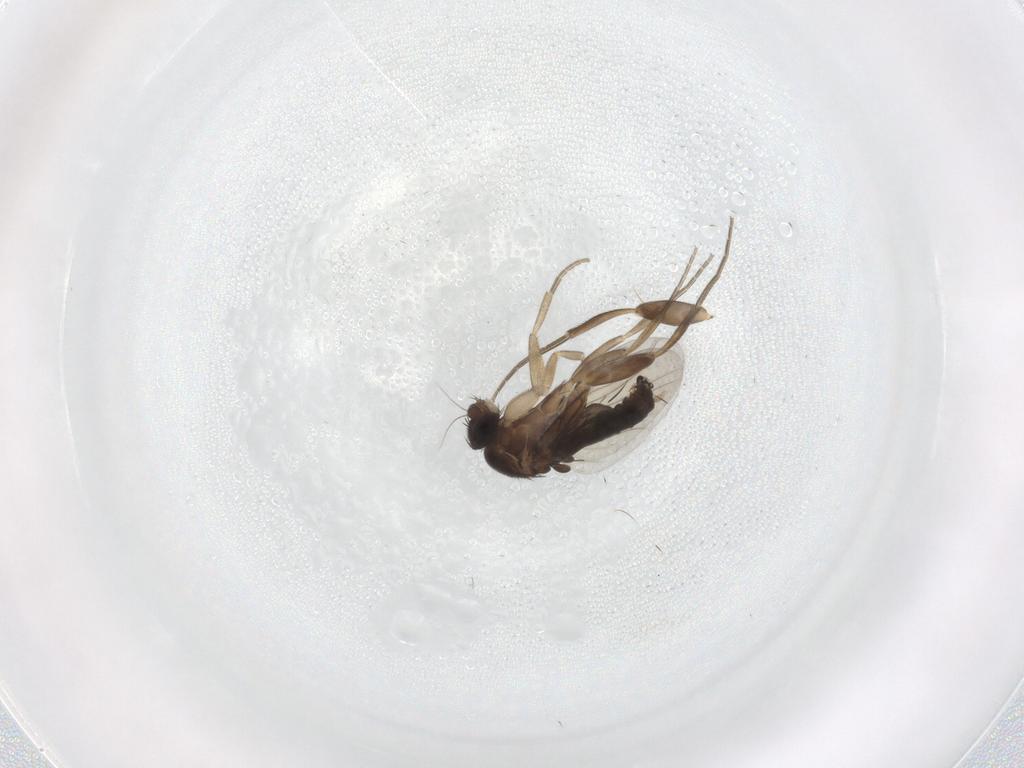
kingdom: Animalia
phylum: Arthropoda
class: Insecta
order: Diptera
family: Phoridae
